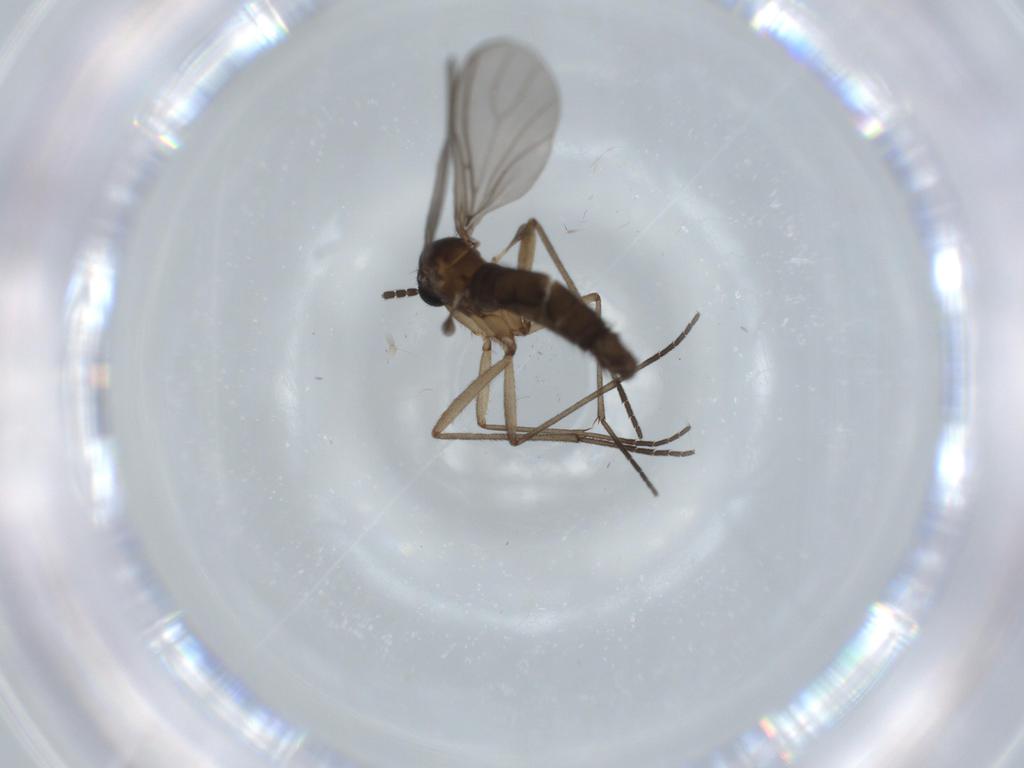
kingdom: Animalia
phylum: Arthropoda
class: Insecta
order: Diptera
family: Sciaridae
